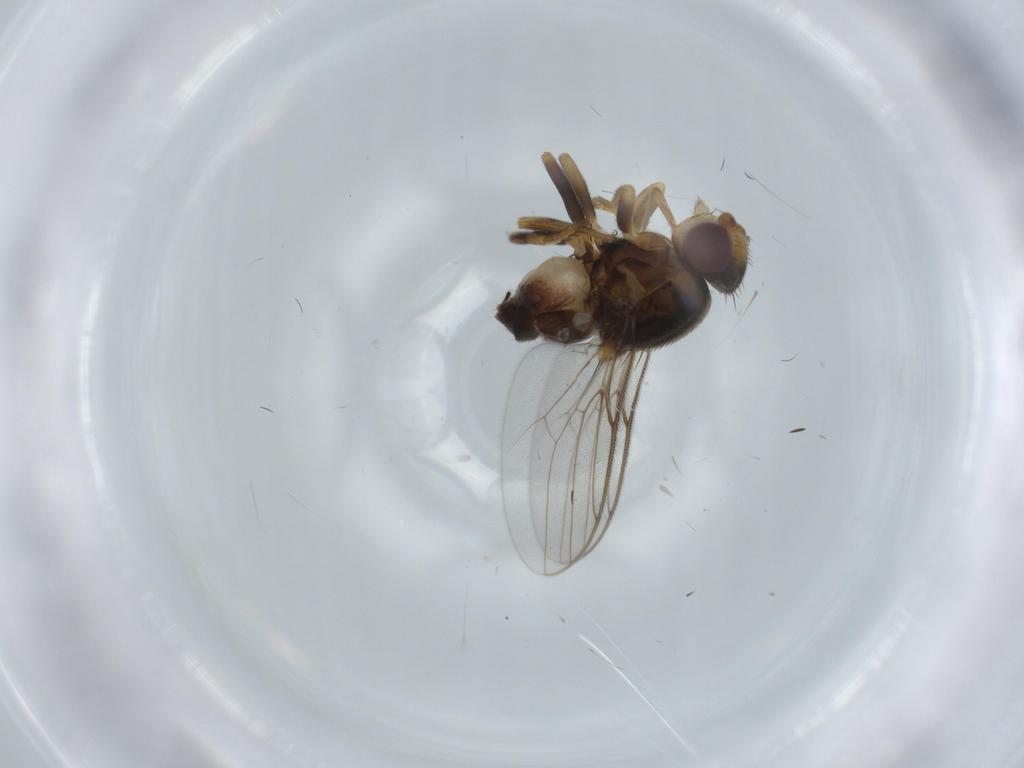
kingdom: Animalia
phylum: Arthropoda
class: Insecta
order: Diptera
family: Chloropidae
